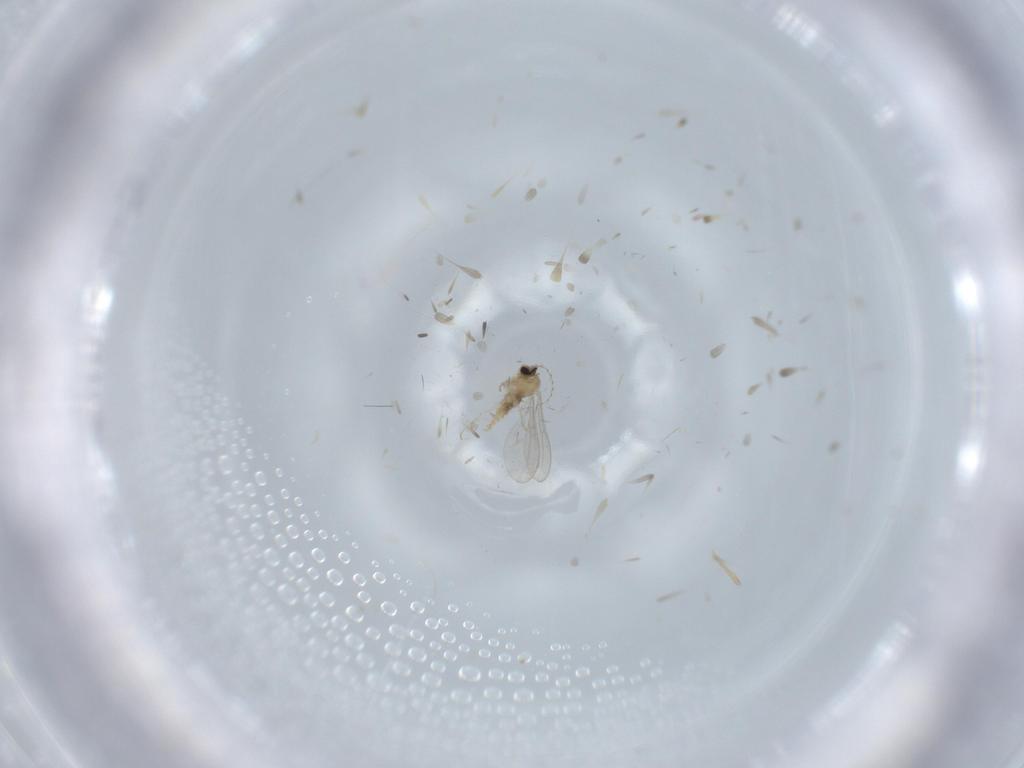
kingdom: Animalia
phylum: Arthropoda
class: Insecta
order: Diptera
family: Cecidomyiidae
